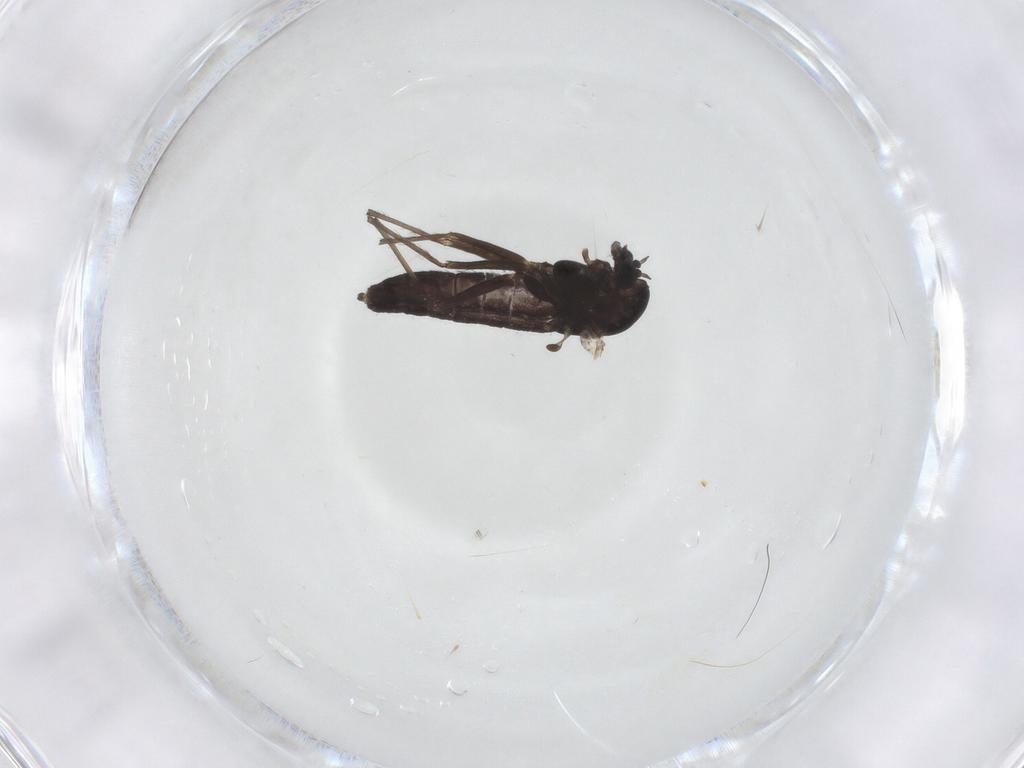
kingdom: Animalia
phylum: Arthropoda
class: Insecta
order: Diptera
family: Chironomidae
